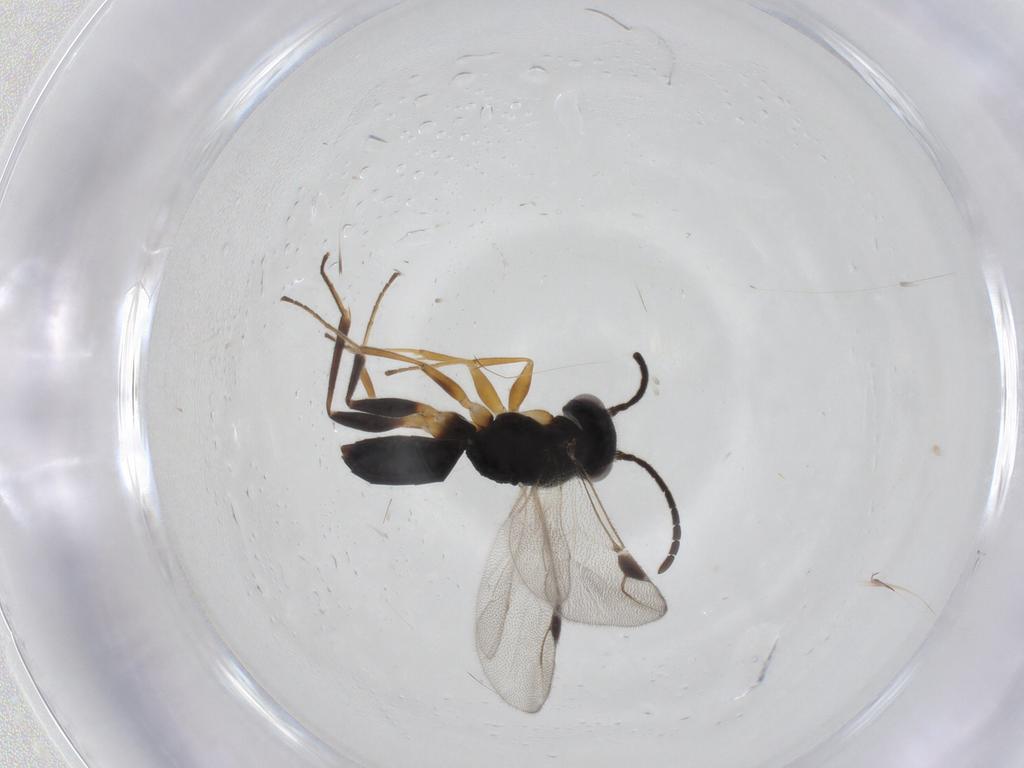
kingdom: Animalia
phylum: Arthropoda
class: Insecta
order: Hymenoptera
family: Dryinidae
